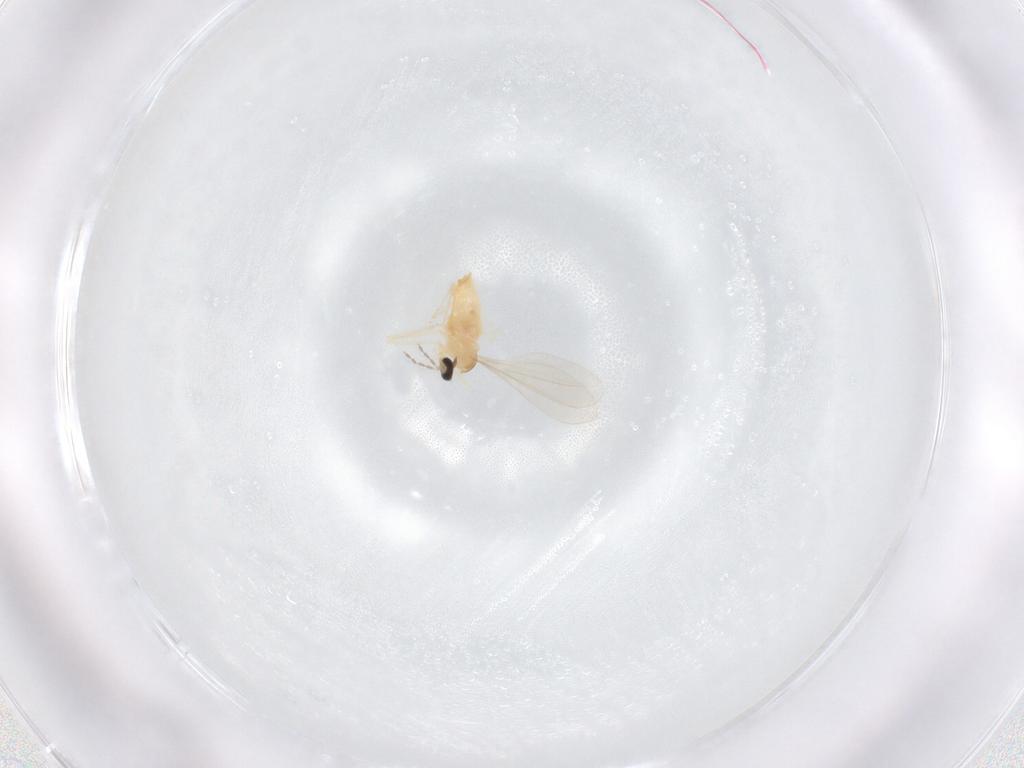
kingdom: Animalia
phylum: Arthropoda
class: Insecta
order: Diptera
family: Cecidomyiidae
